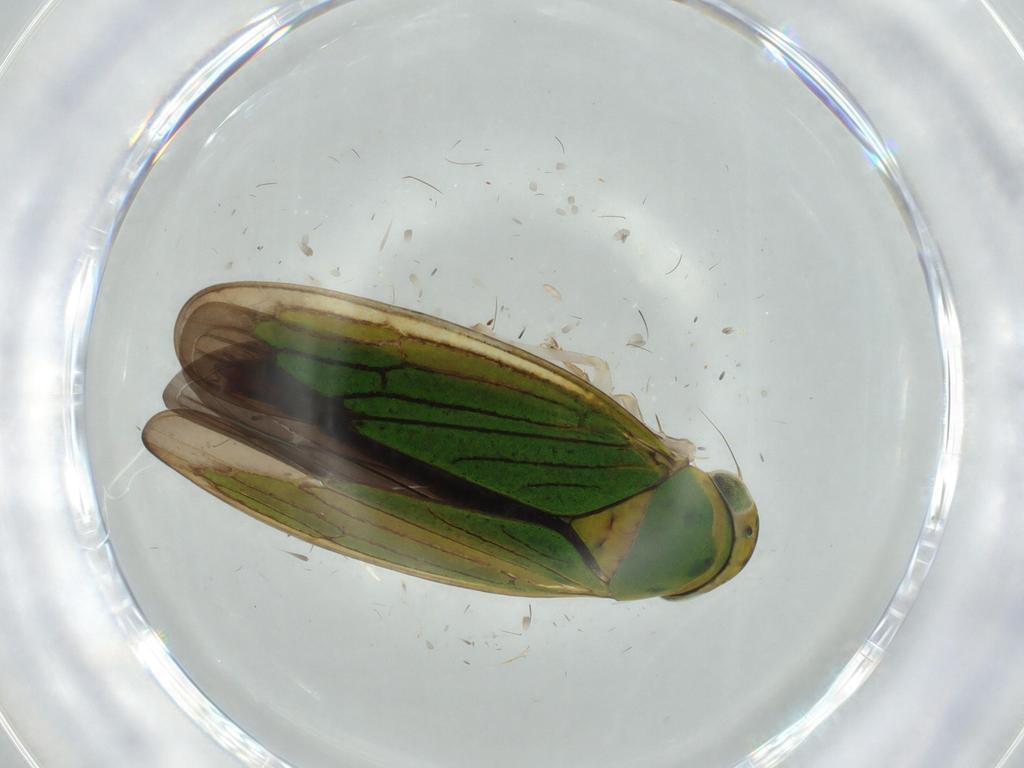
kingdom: Animalia
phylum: Arthropoda
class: Insecta
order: Hemiptera
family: Cicadellidae
